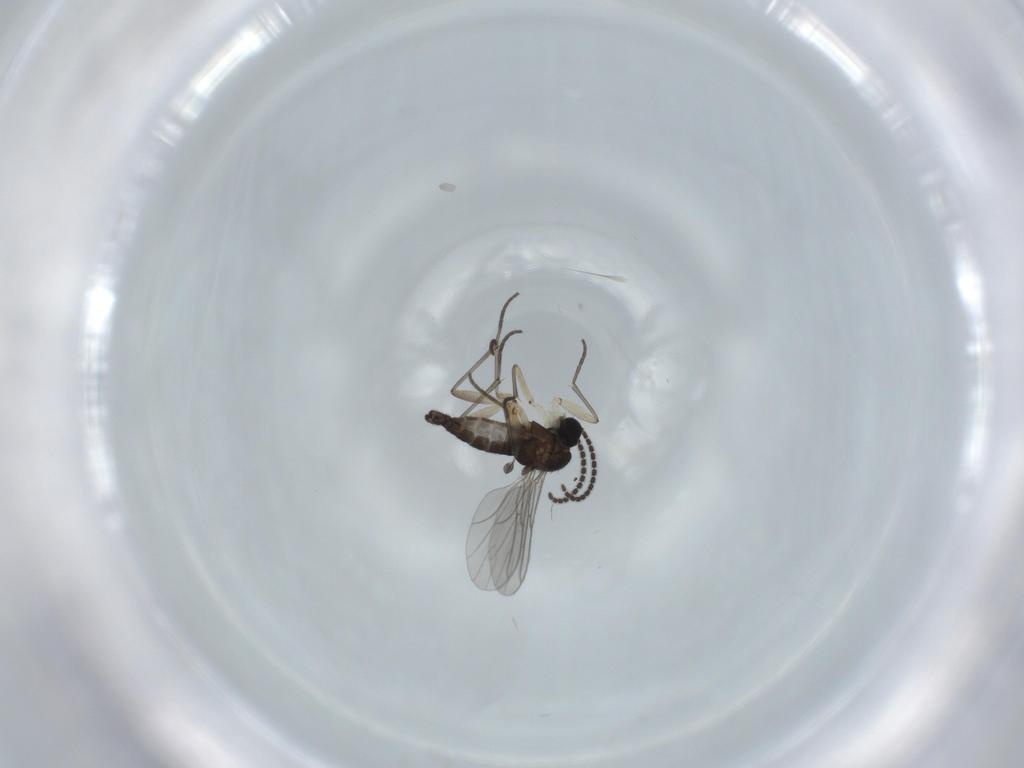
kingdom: Animalia
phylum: Arthropoda
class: Insecta
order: Diptera
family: Sciaridae
